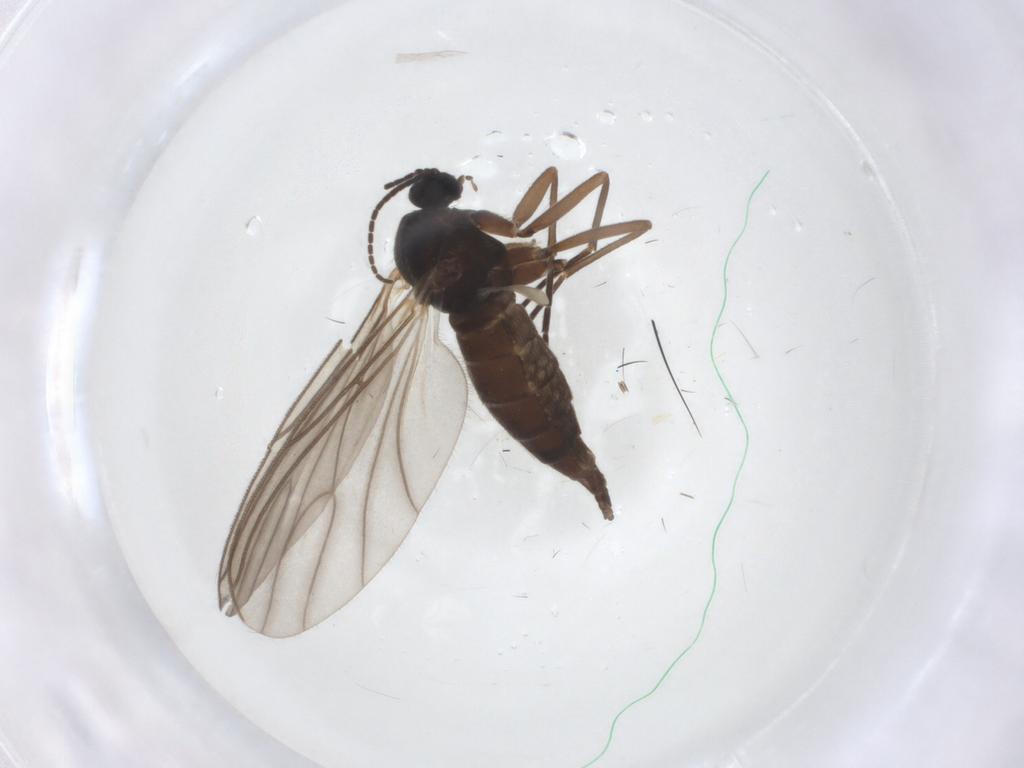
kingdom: Animalia
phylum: Arthropoda
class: Insecta
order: Diptera
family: Sciaridae
